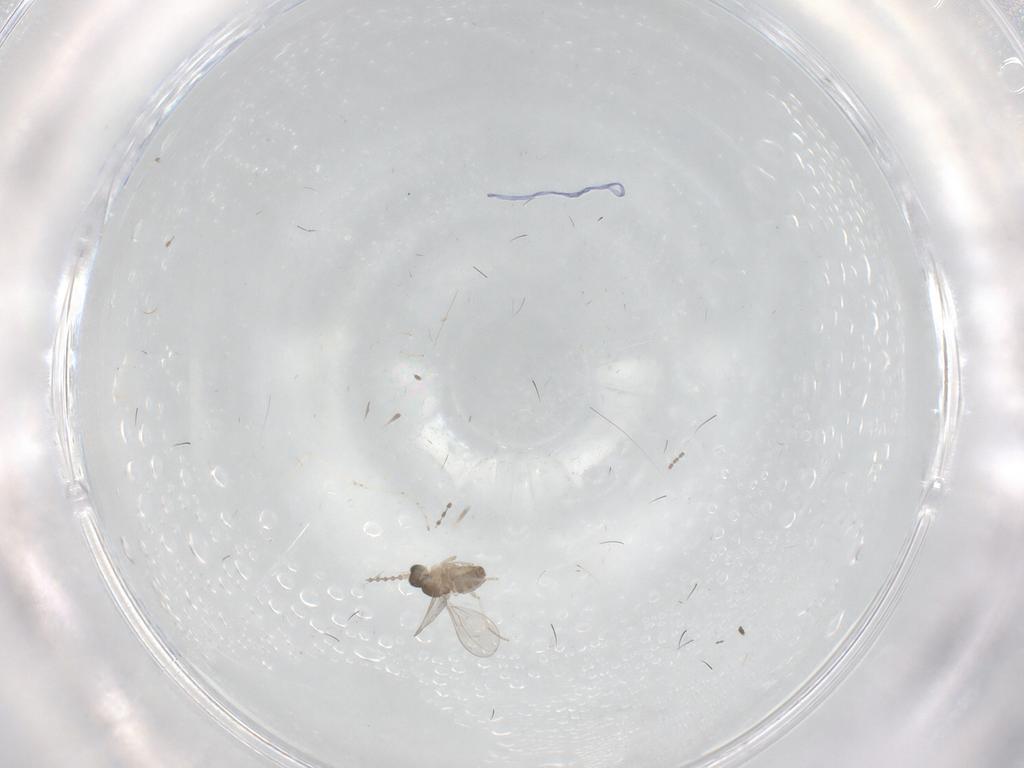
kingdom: Animalia
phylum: Arthropoda
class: Insecta
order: Diptera
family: Cecidomyiidae
